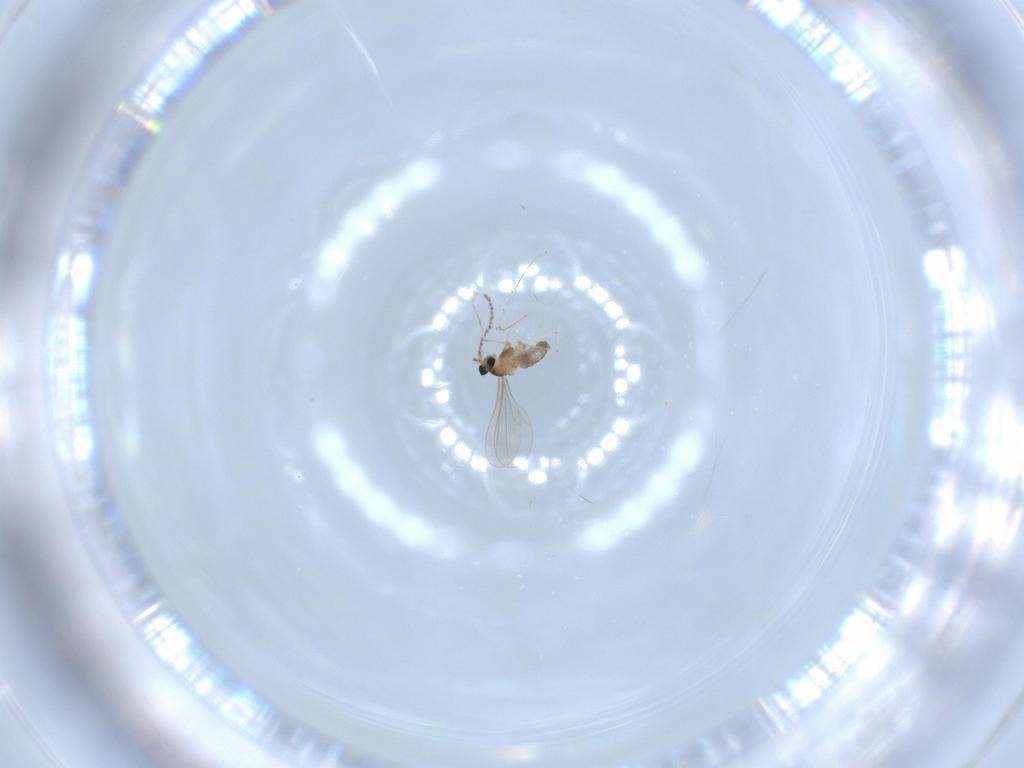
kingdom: Animalia
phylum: Arthropoda
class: Insecta
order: Diptera
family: Cecidomyiidae
